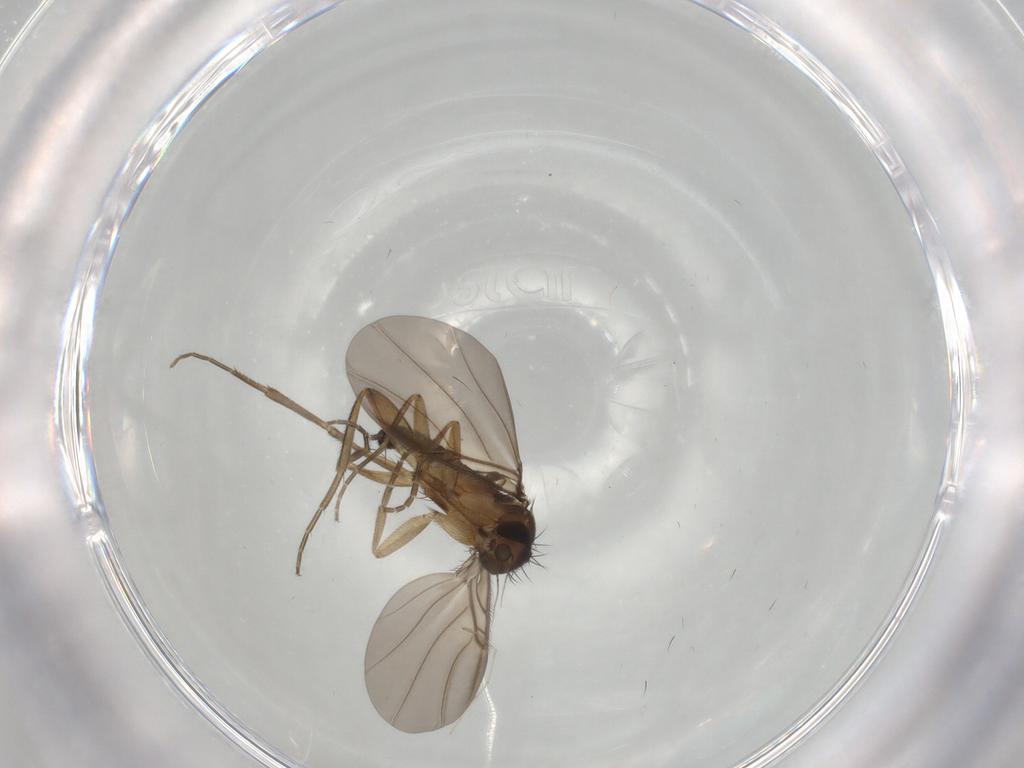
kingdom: Animalia
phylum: Arthropoda
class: Insecta
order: Diptera
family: Phoridae
